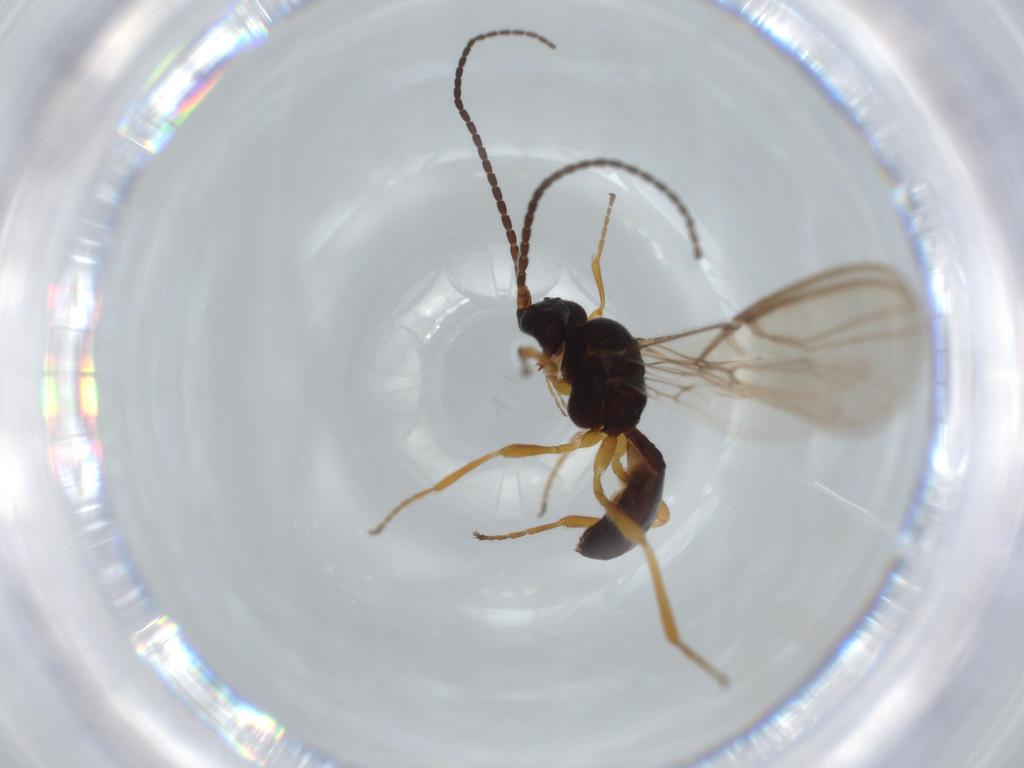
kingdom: Animalia
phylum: Arthropoda
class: Insecta
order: Hymenoptera
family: Braconidae
